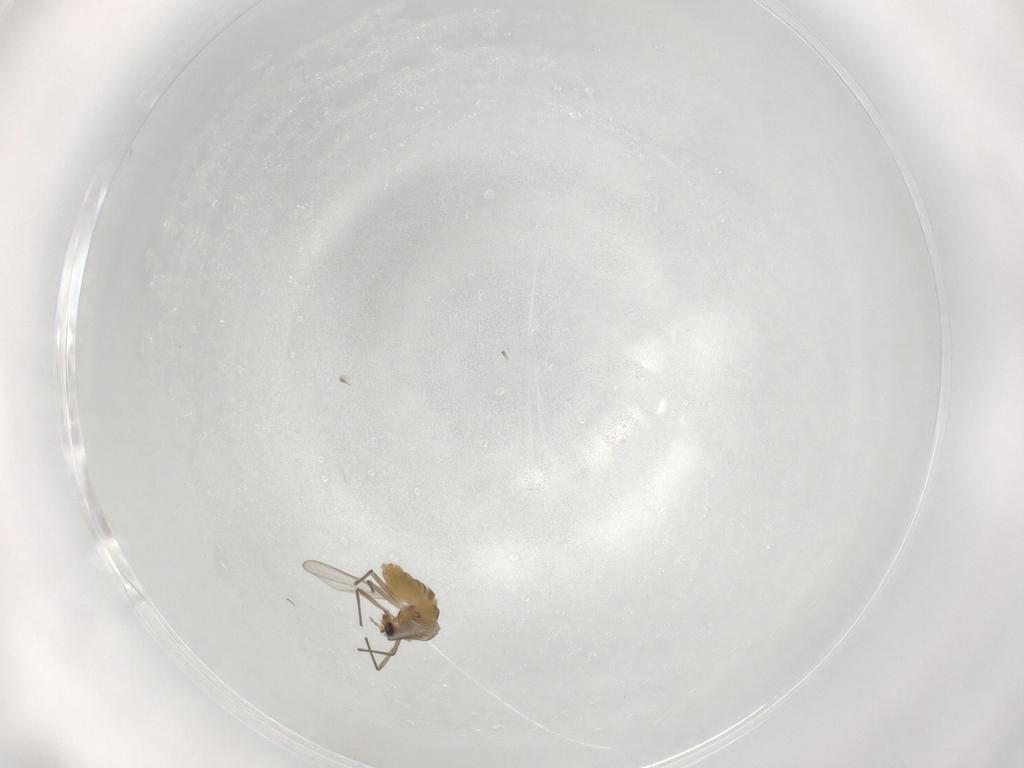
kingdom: Animalia
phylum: Arthropoda
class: Insecta
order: Diptera
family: Chironomidae
